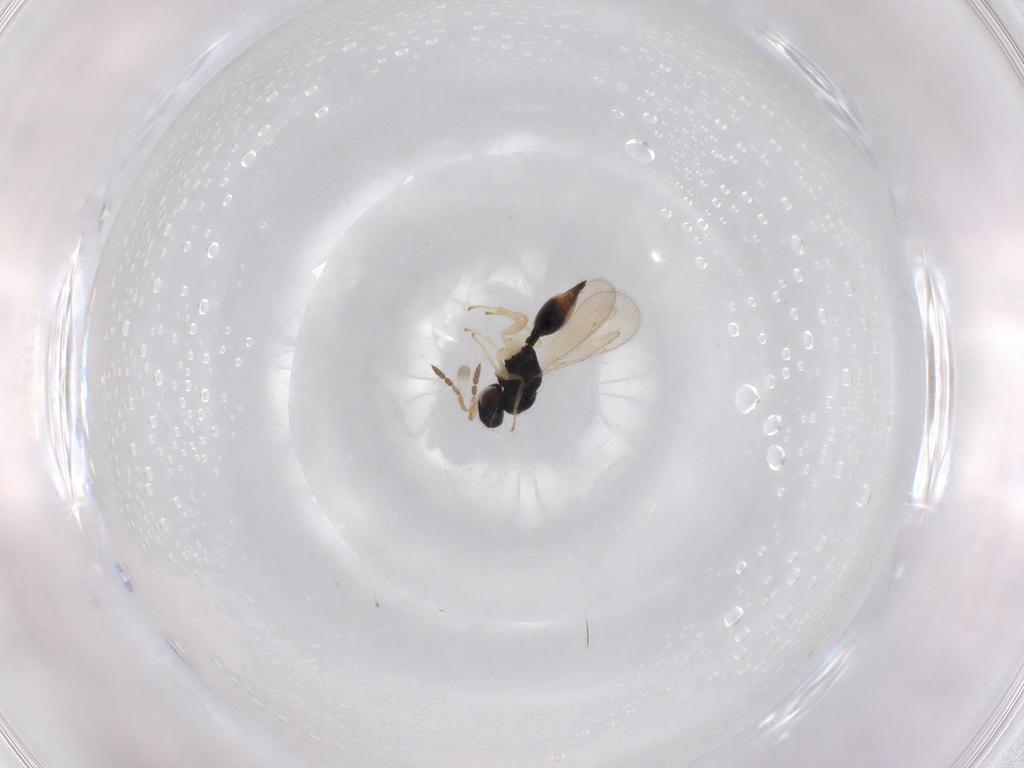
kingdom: Animalia
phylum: Arthropoda
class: Insecta
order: Hymenoptera
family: Eulophidae
